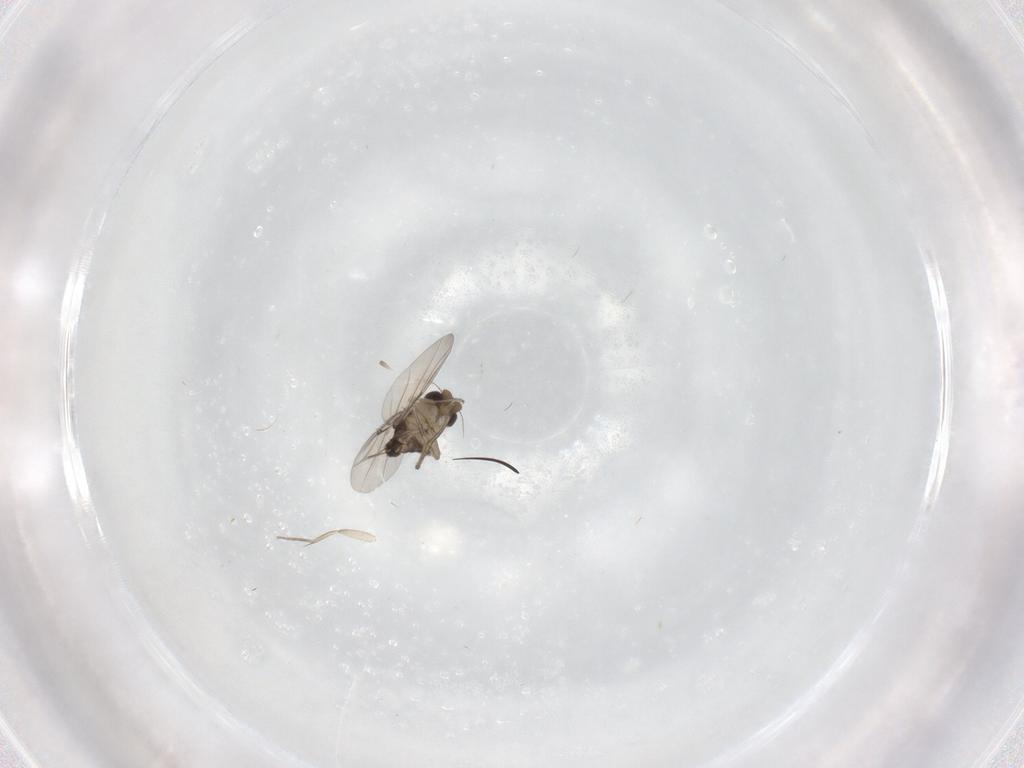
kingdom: Animalia
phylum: Arthropoda
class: Insecta
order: Diptera
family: Phoridae
